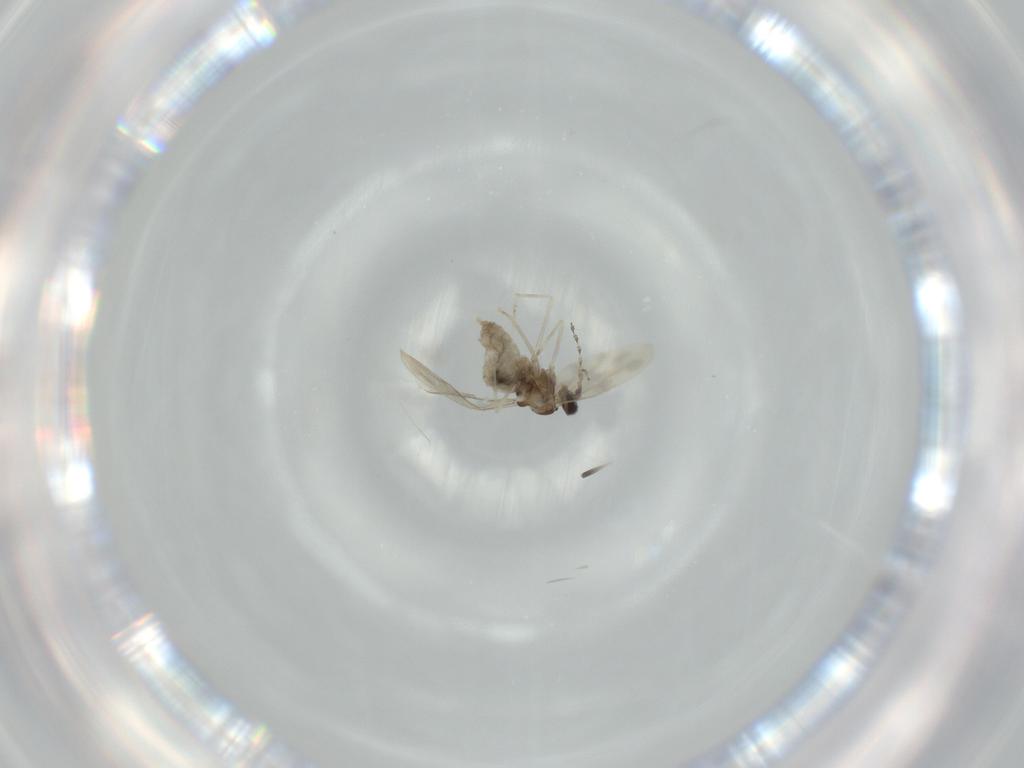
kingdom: Animalia
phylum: Arthropoda
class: Insecta
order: Diptera
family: Cecidomyiidae
